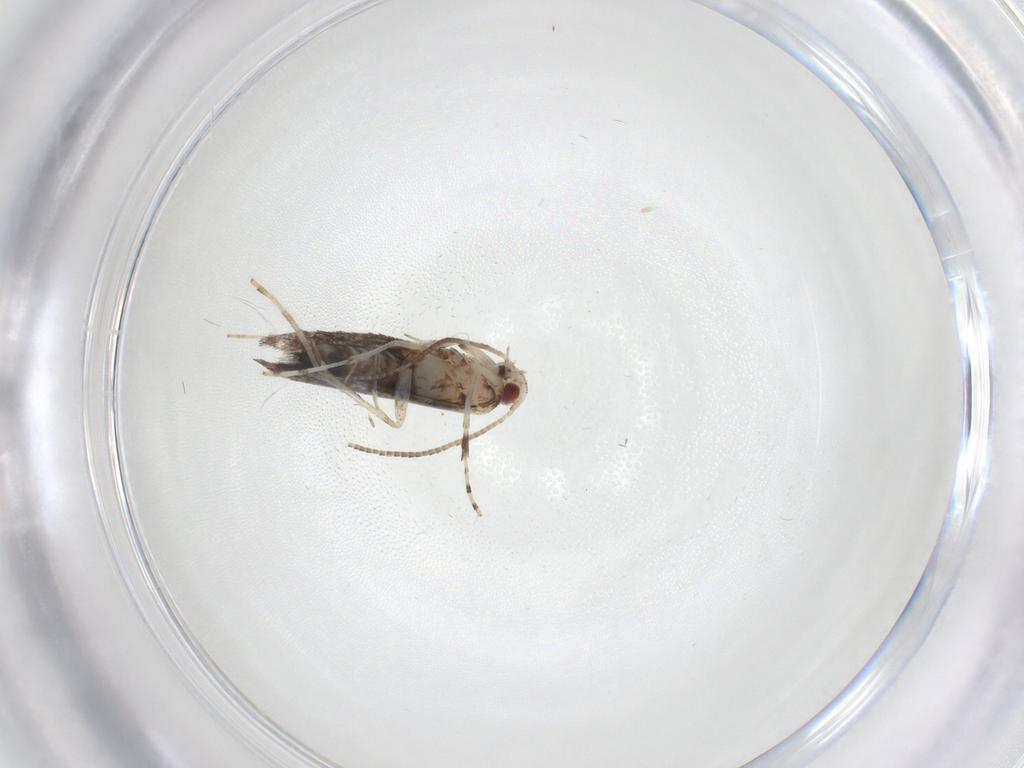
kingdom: Animalia
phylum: Arthropoda
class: Insecta
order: Lepidoptera
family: Gracillariidae
